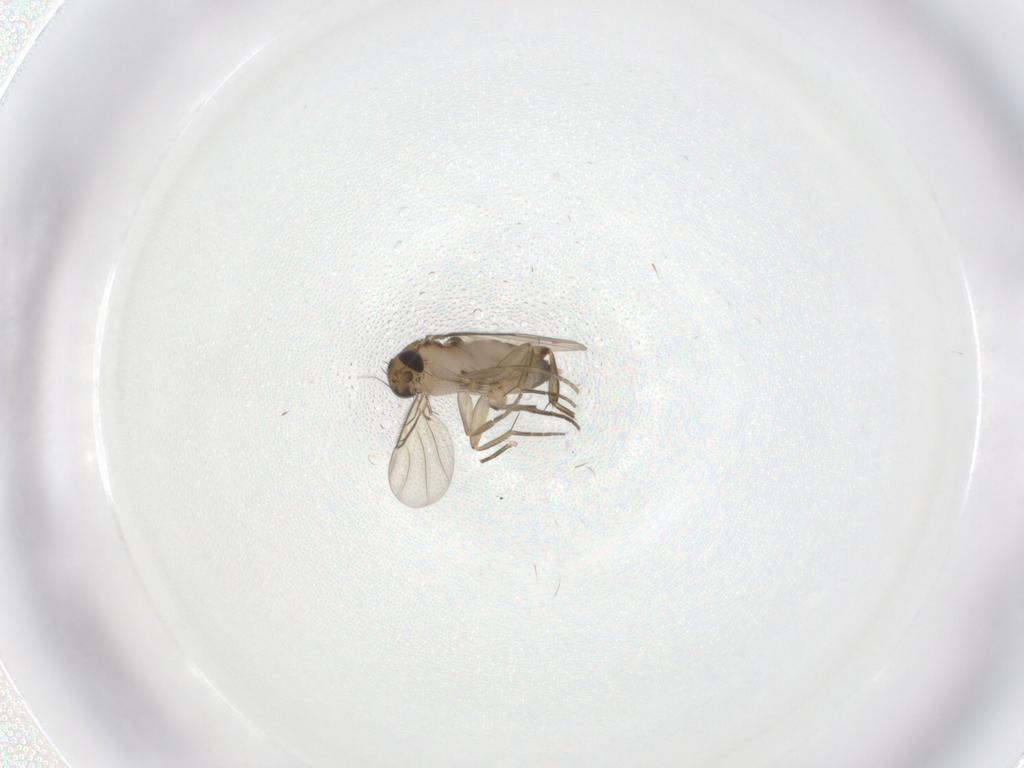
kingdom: Animalia
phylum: Arthropoda
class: Insecta
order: Diptera
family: Phoridae
